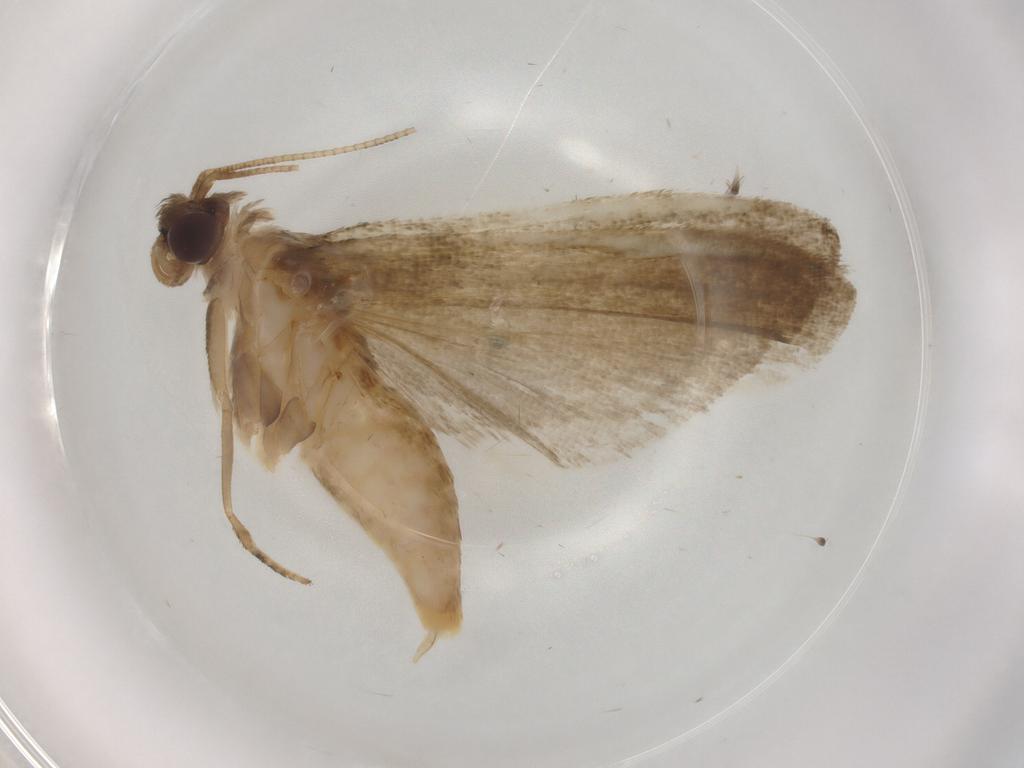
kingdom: Animalia
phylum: Arthropoda
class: Insecta
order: Lepidoptera
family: Noctuidae
